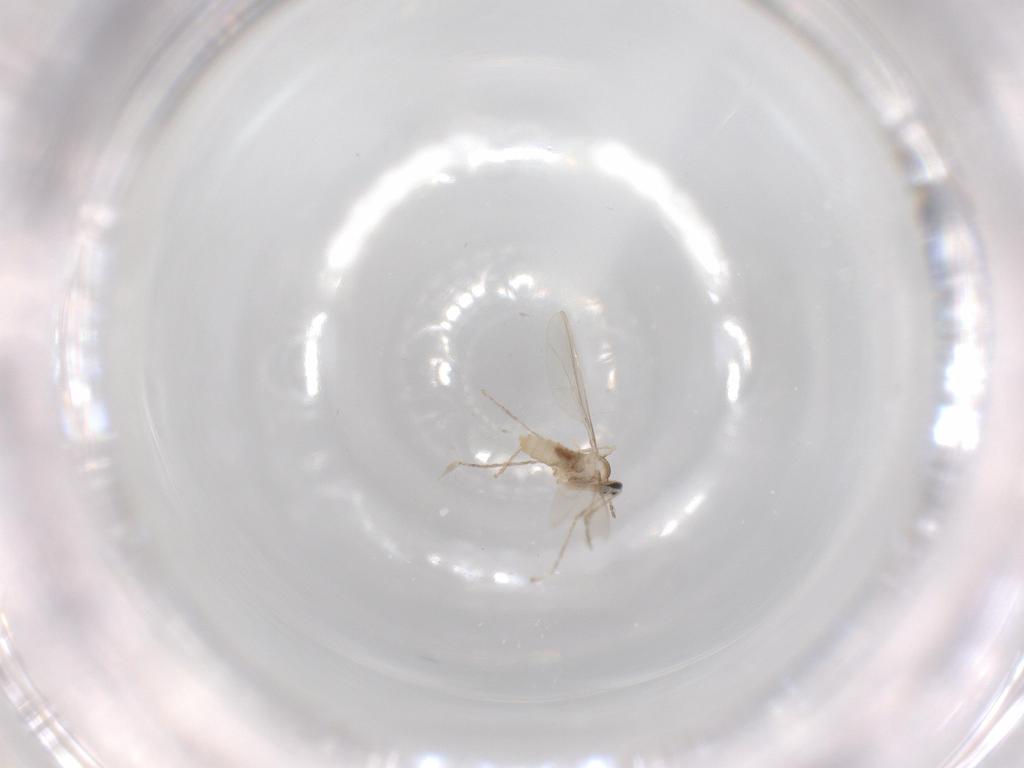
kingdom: Animalia
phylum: Arthropoda
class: Insecta
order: Diptera
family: Cecidomyiidae
